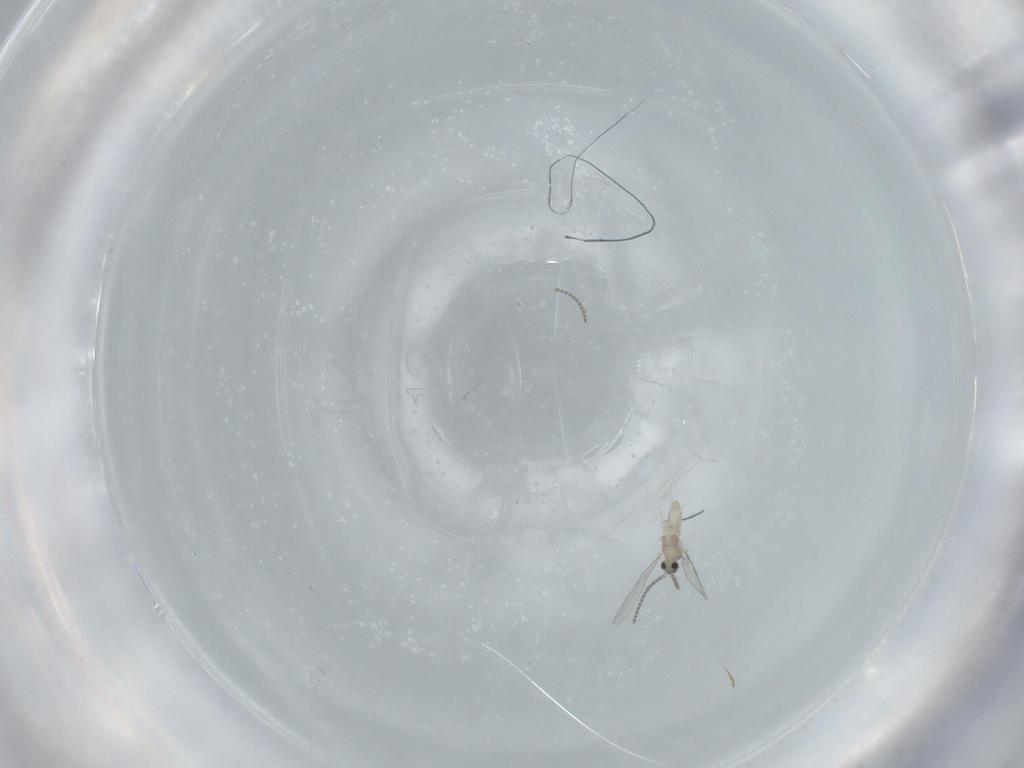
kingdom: Animalia
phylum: Arthropoda
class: Insecta
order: Diptera
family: Cecidomyiidae
